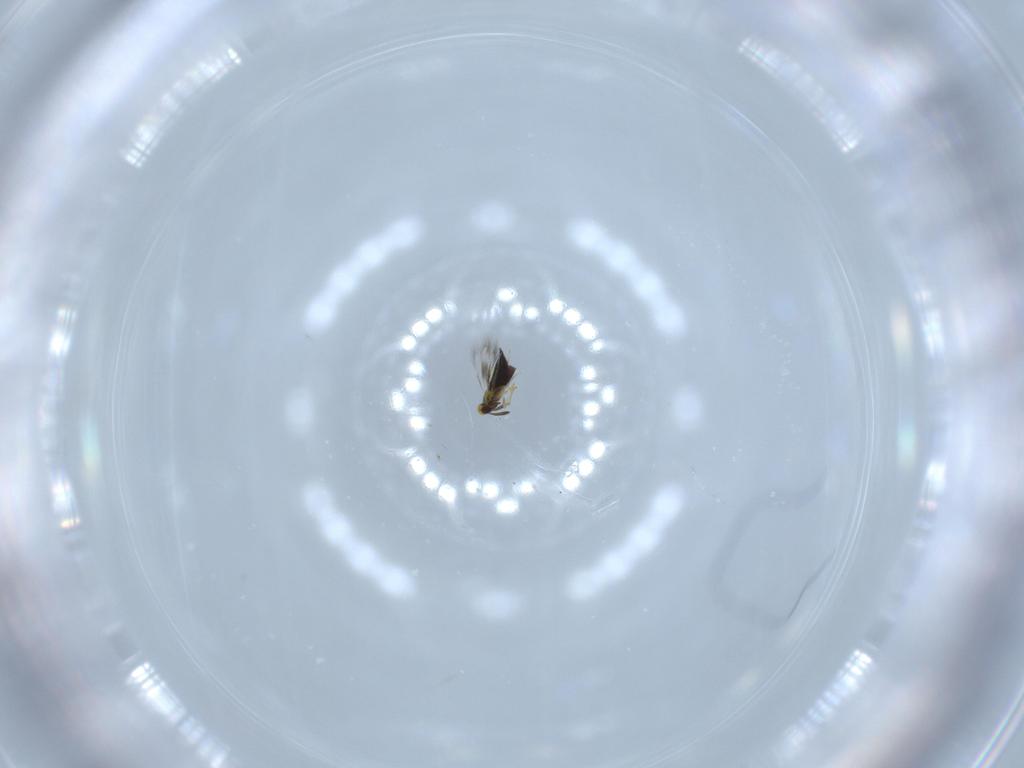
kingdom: Animalia
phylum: Arthropoda
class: Insecta
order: Hymenoptera
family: Signiphoridae
